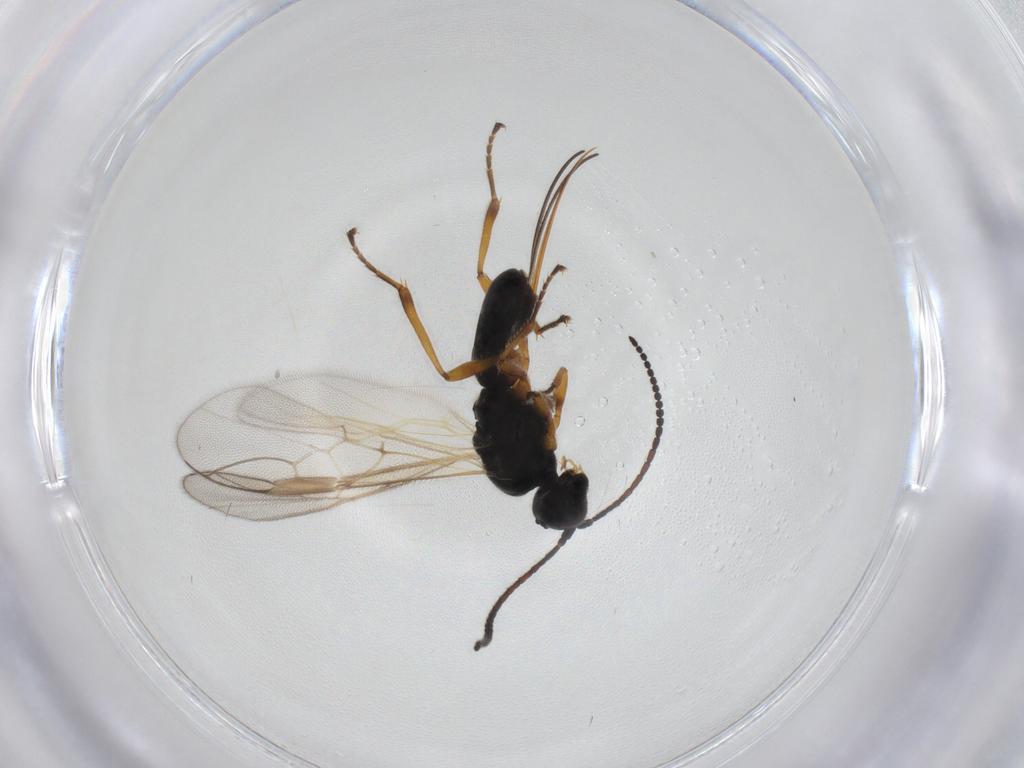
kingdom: Animalia
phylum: Arthropoda
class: Insecta
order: Hymenoptera
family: Braconidae
